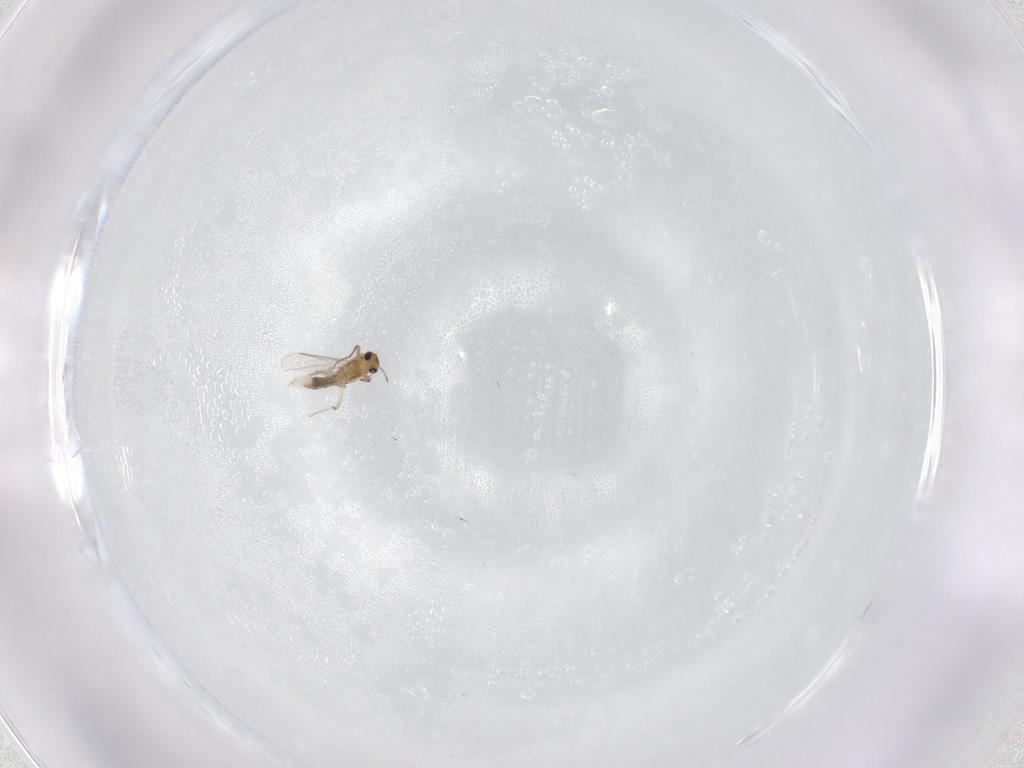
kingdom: Animalia
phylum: Arthropoda
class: Insecta
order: Diptera
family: Chironomidae
